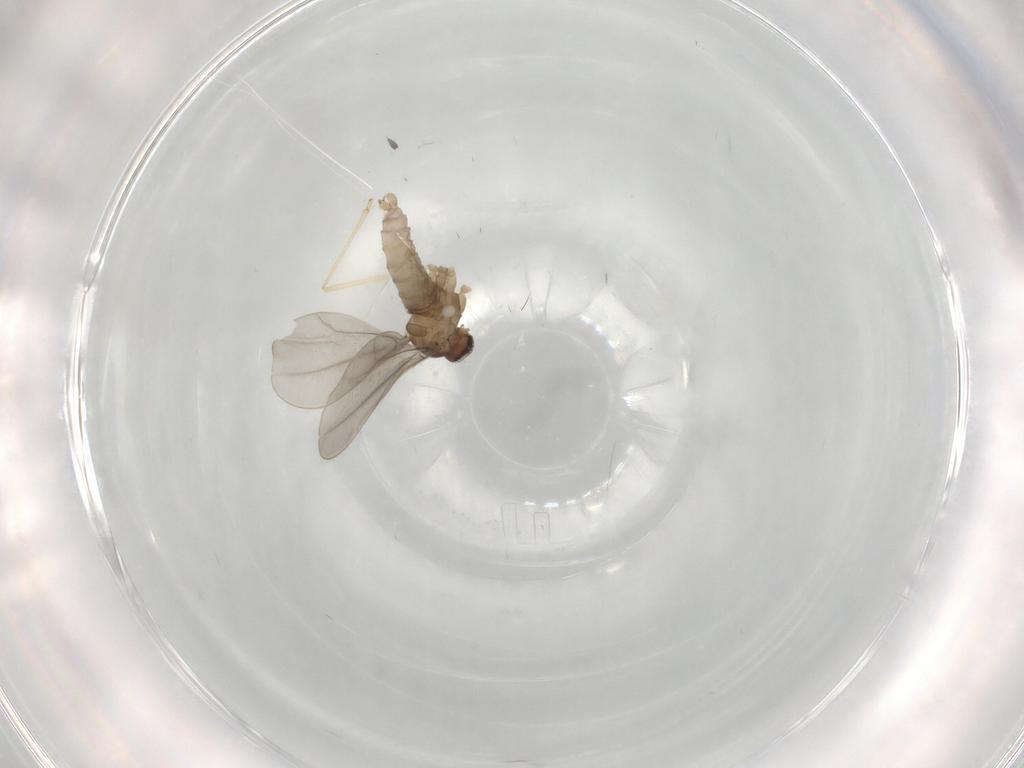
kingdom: Animalia
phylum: Arthropoda
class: Insecta
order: Diptera
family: Cecidomyiidae
